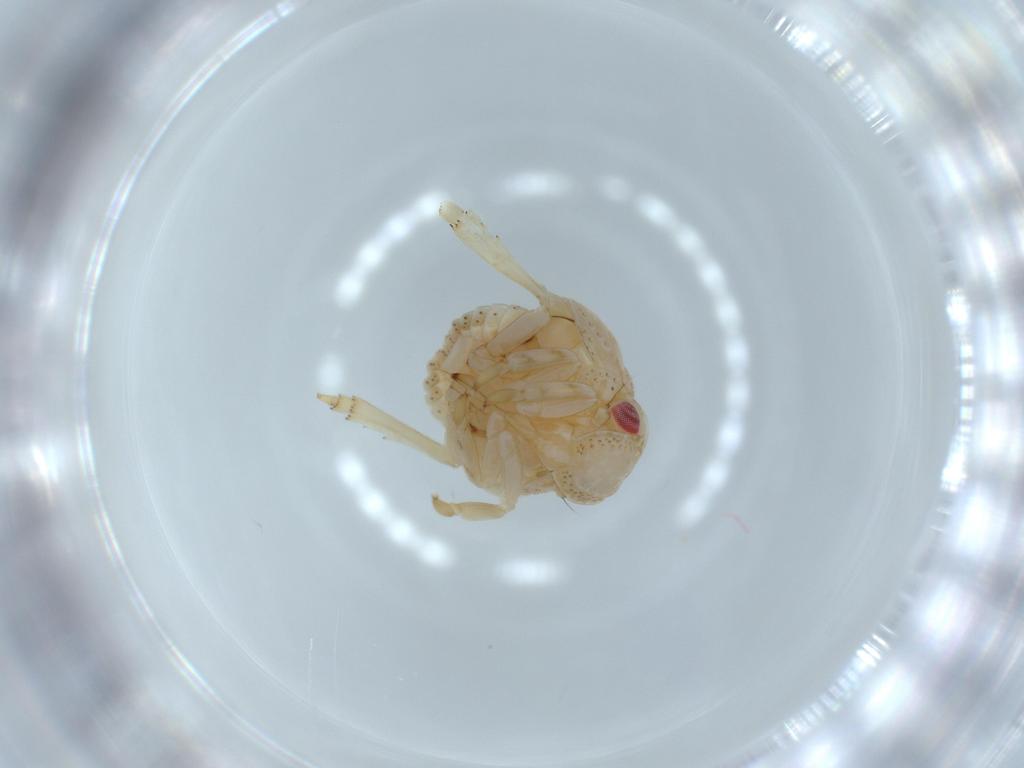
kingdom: Animalia
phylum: Arthropoda
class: Insecta
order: Hemiptera
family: Acanaloniidae
